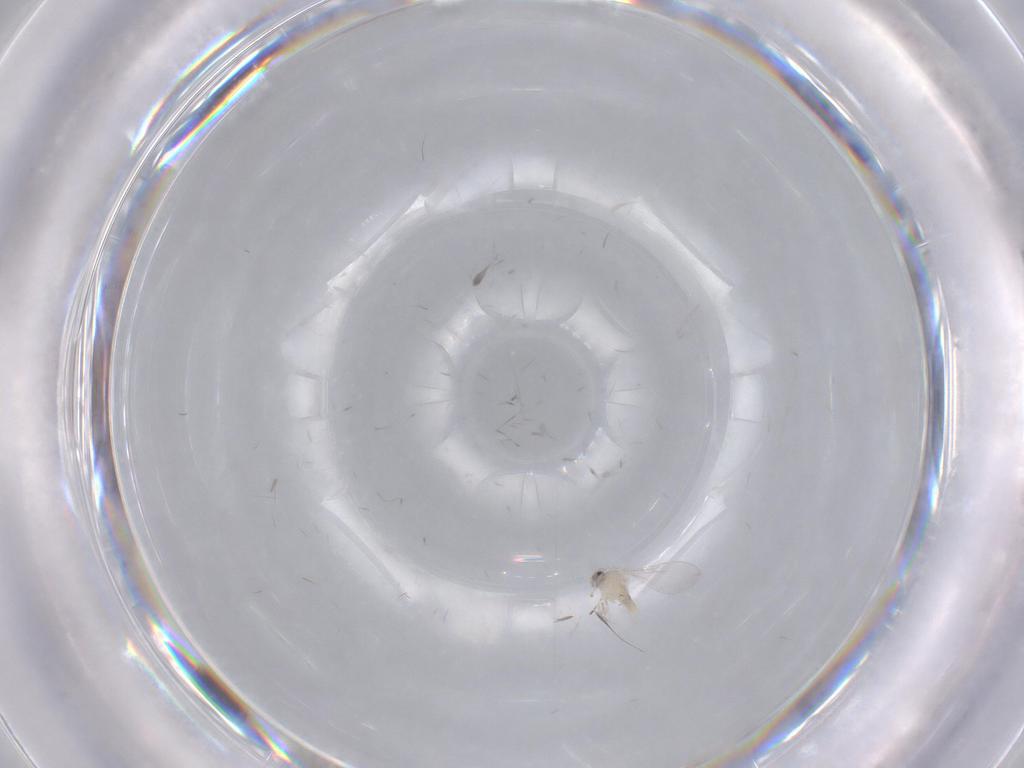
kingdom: Animalia
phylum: Arthropoda
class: Insecta
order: Diptera
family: Cecidomyiidae
